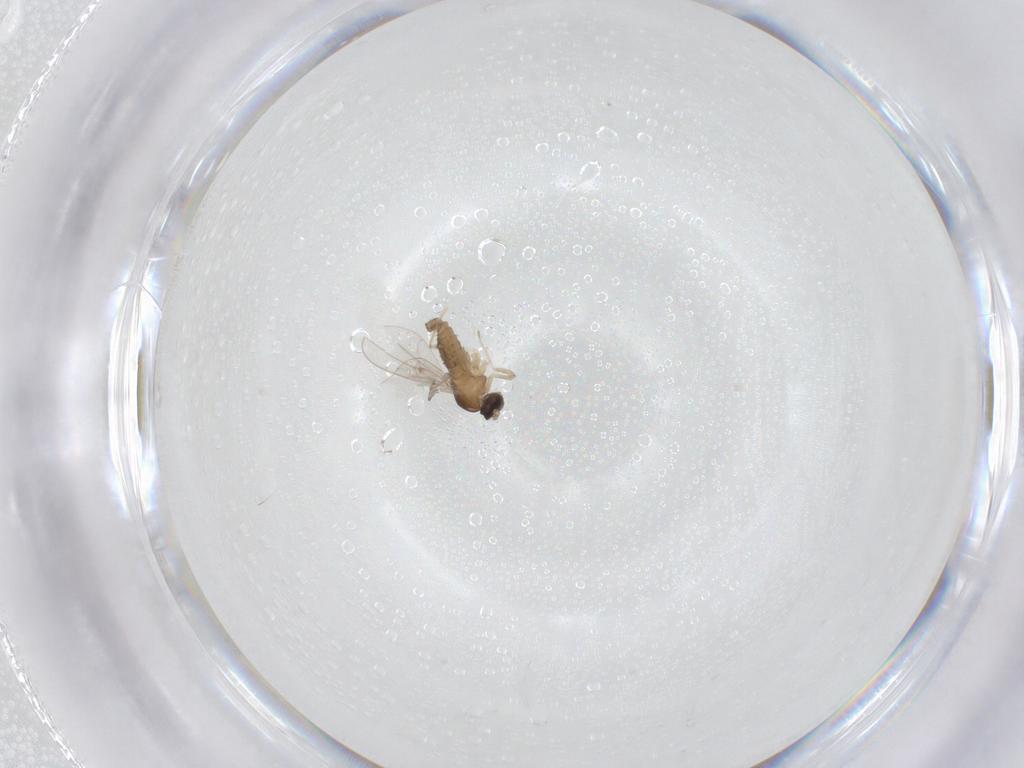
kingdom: Animalia
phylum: Arthropoda
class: Insecta
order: Diptera
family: Cecidomyiidae
